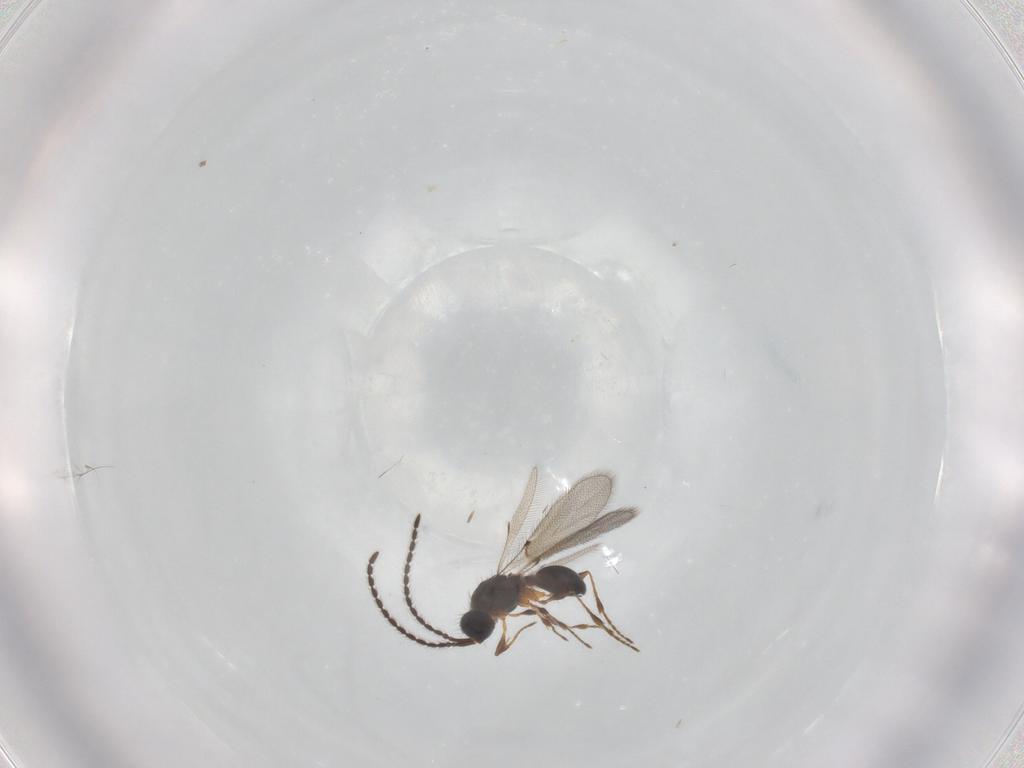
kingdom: Animalia
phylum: Arthropoda
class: Insecta
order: Hymenoptera
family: Diapriidae
